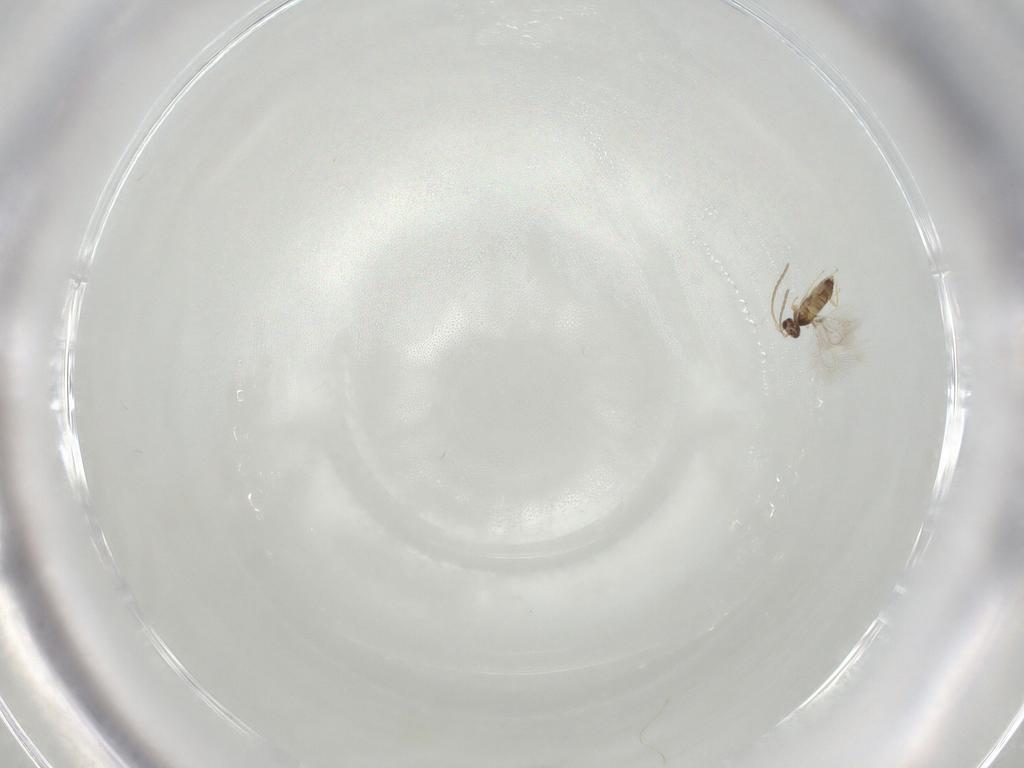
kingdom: Animalia
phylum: Arthropoda
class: Insecta
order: Hymenoptera
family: Mymaridae
